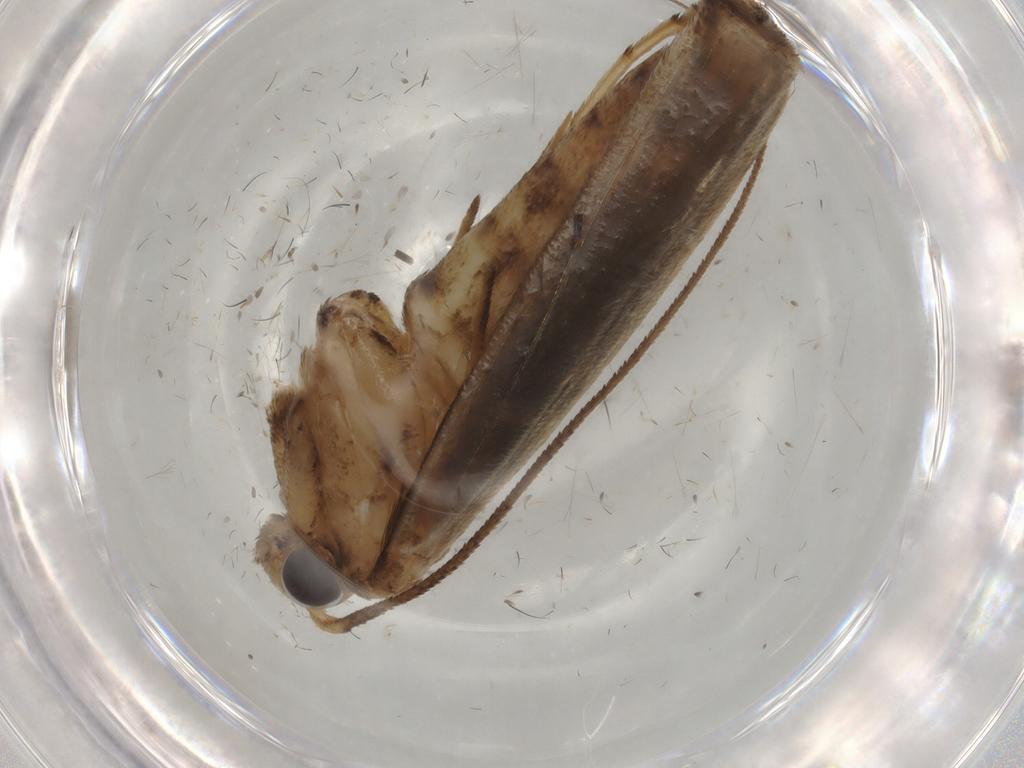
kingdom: Animalia
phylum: Arthropoda
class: Insecta
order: Lepidoptera
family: Yponomeutidae
